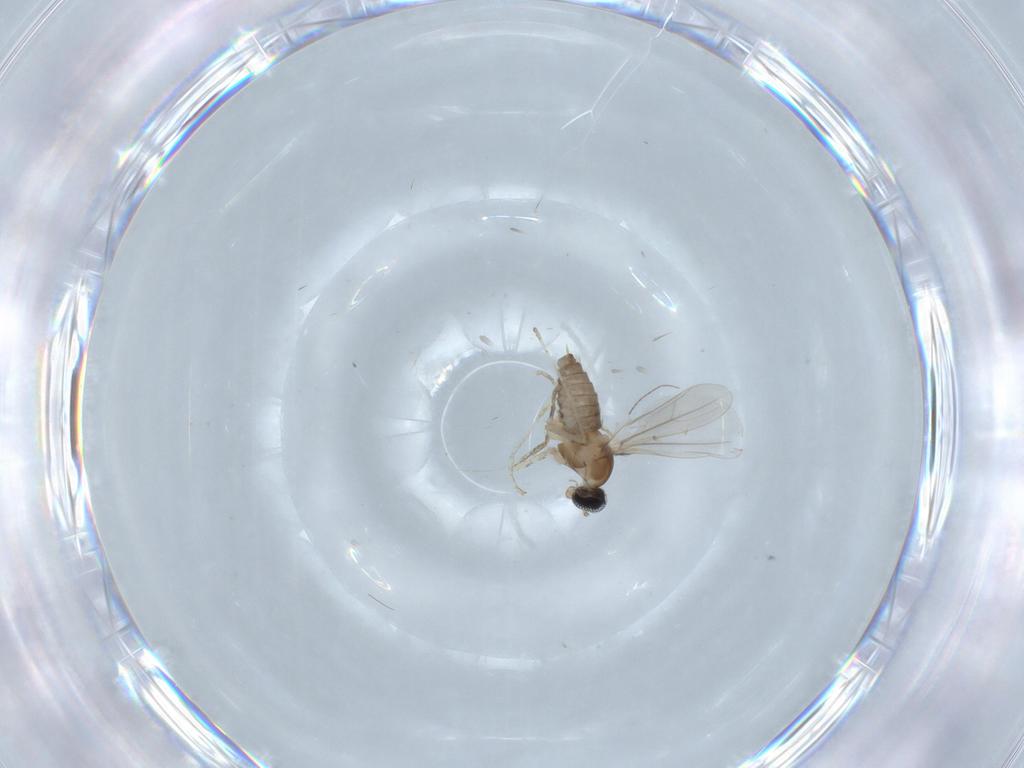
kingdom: Animalia
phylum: Arthropoda
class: Insecta
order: Diptera
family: Cecidomyiidae
